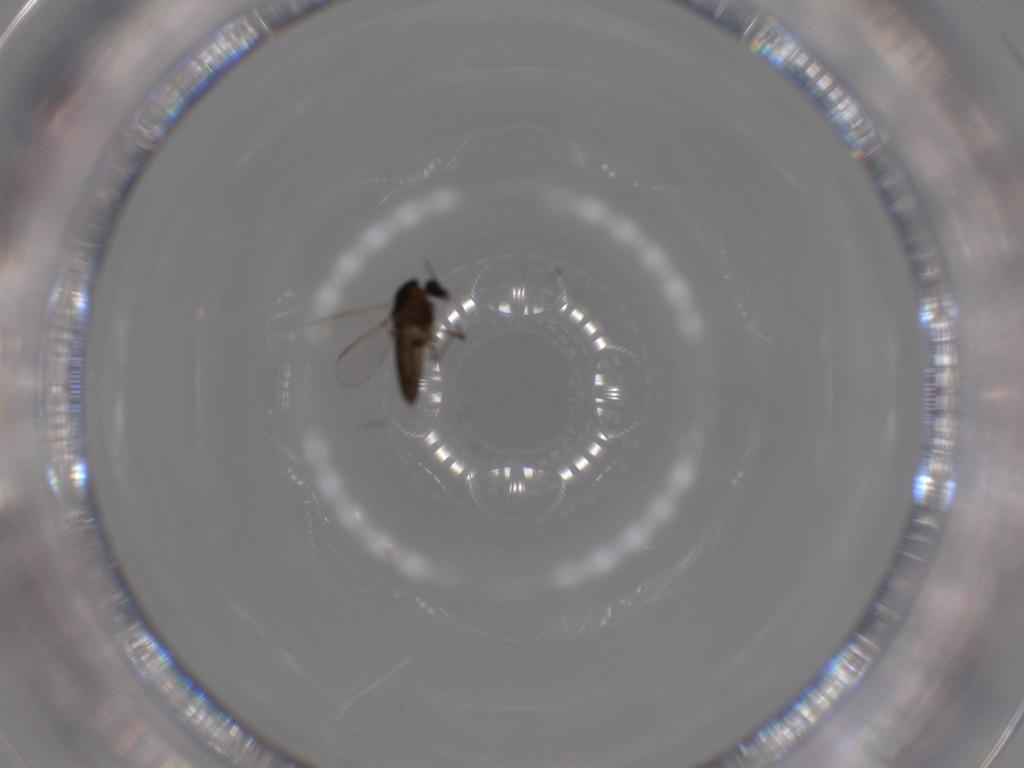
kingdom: Animalia
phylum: Arthropoda
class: Insecta
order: Diptera
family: Chironomidae
